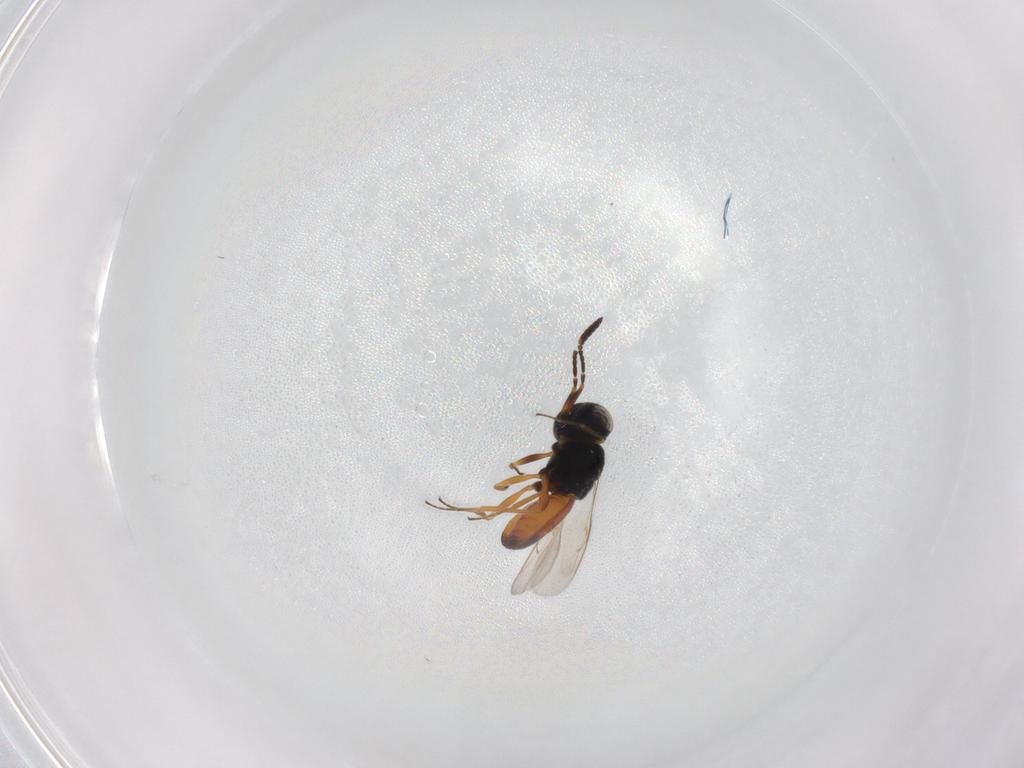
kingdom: Animalia
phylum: Arthropoda
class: Insecta
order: Hymenoptera
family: Scelionidae
